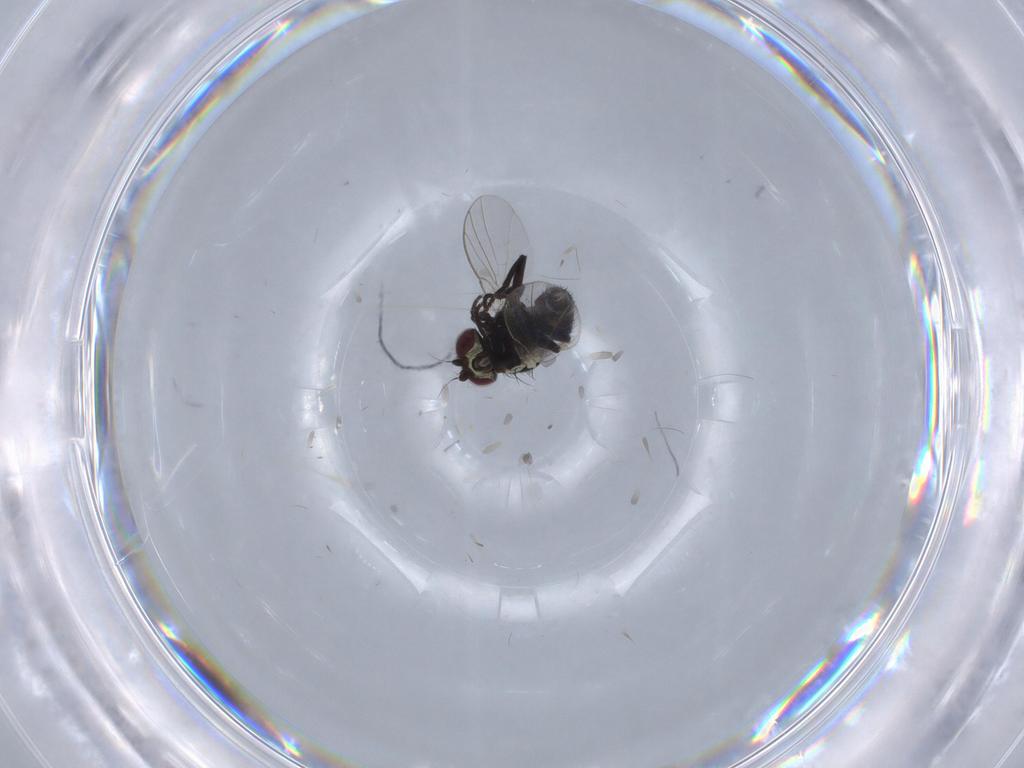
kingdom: Animalia
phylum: Arthropoda
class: Insecta
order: Diptera
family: Agromyzidae
